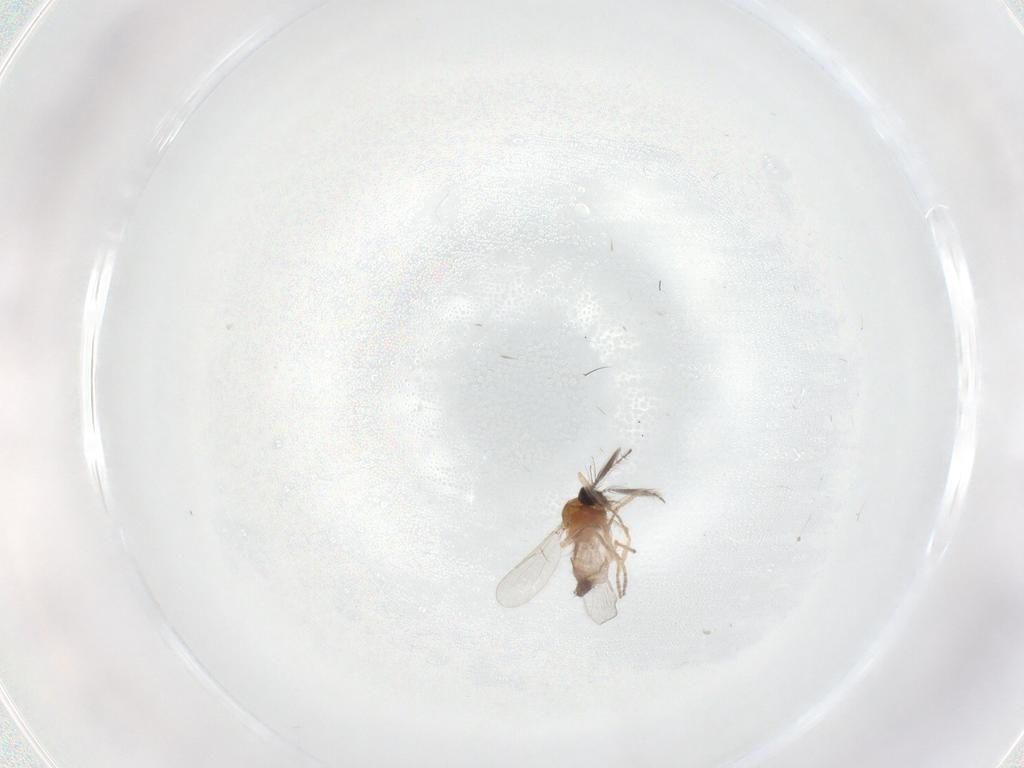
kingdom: Animalia
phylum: Arthropoda
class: Insecta
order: Diptera
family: Ceratopogonidae
